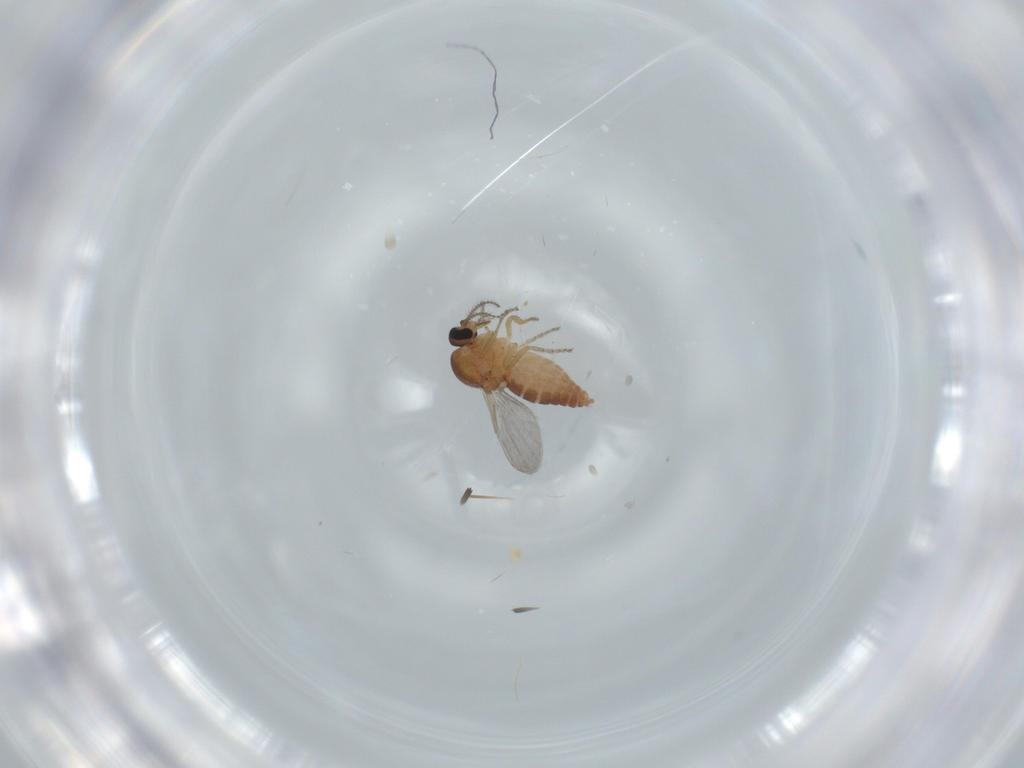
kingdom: Animalia
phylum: Arthropoda
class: Insecta
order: Diptera
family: Ceratopogonidae
